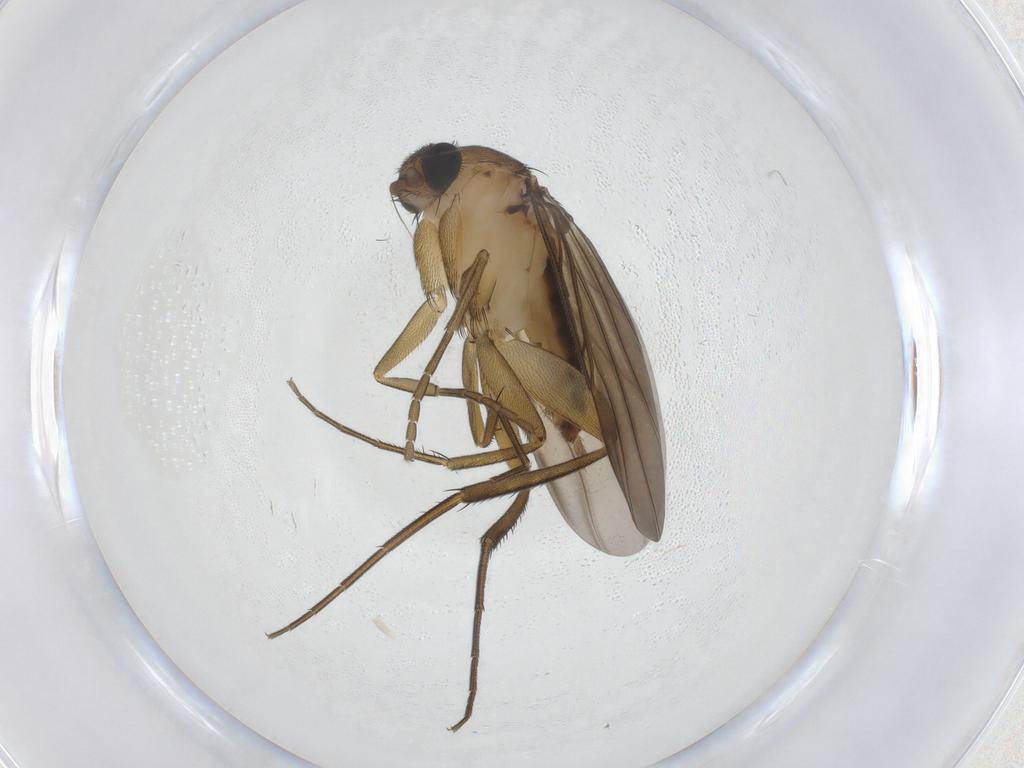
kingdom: Animalia
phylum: Arthropoda
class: Insecta
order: Diptera
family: Phoridae
